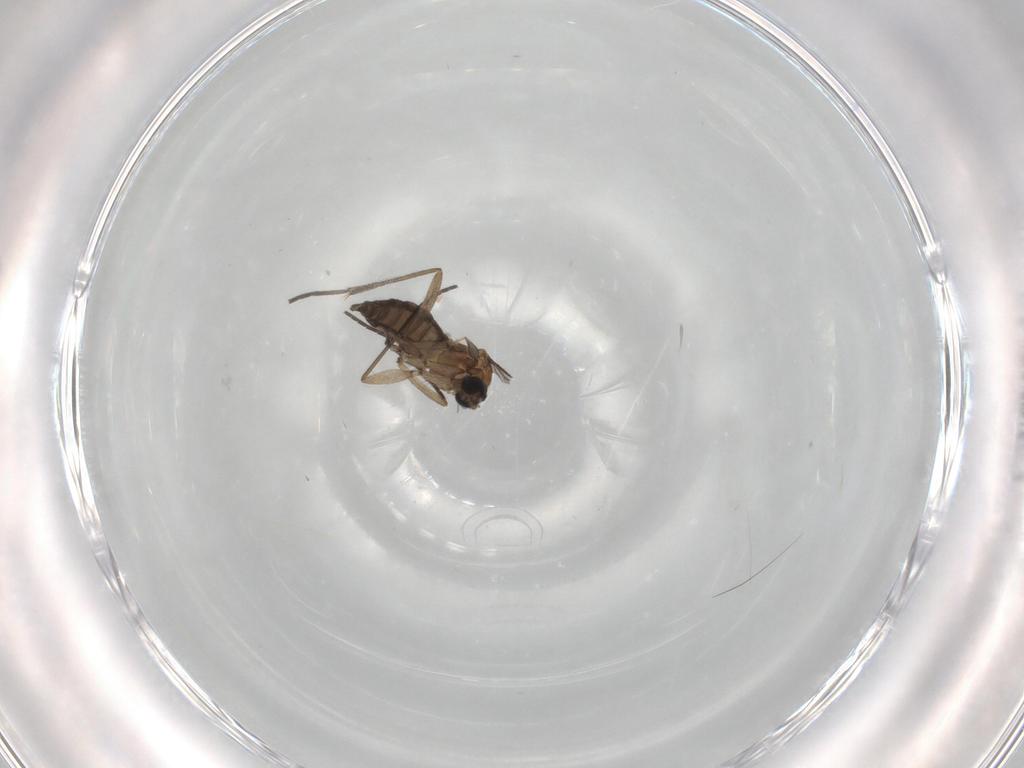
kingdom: Animalia
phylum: Arthropoda
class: Insecta
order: Diptera
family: Sciaridae
